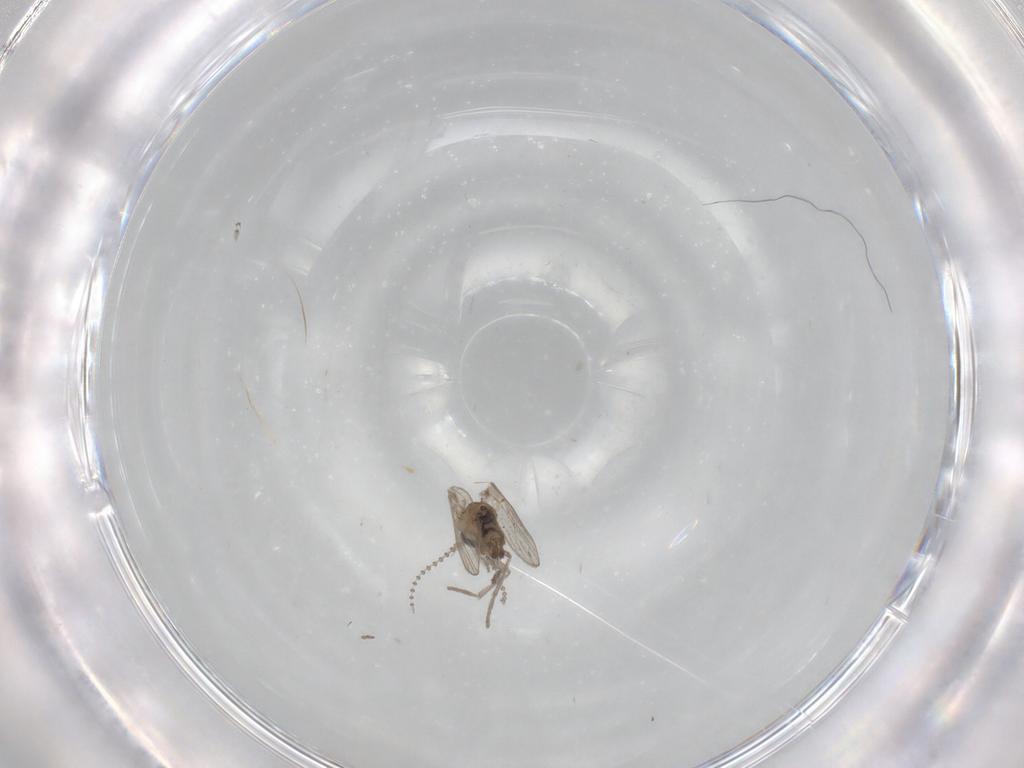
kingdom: Animalia
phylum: Arthropoda
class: Insecta
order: Diptera
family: Psychodidae
